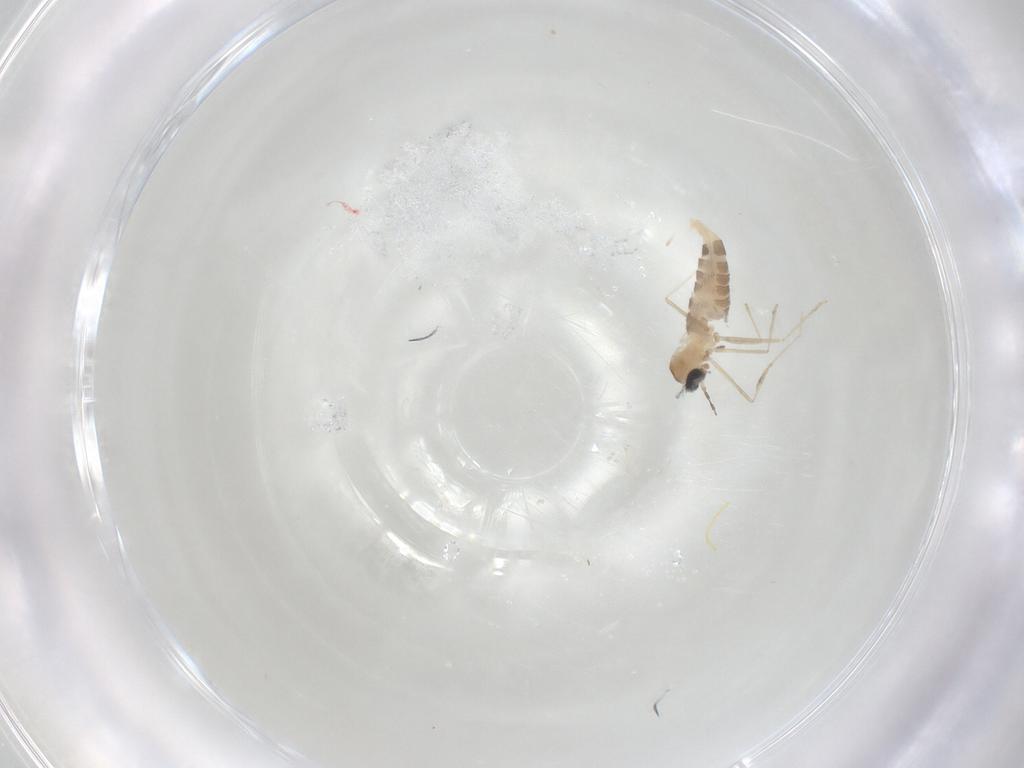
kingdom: Animalia
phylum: Arthropoda
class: Insecta
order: Diptera
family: Cecidomyiidae
